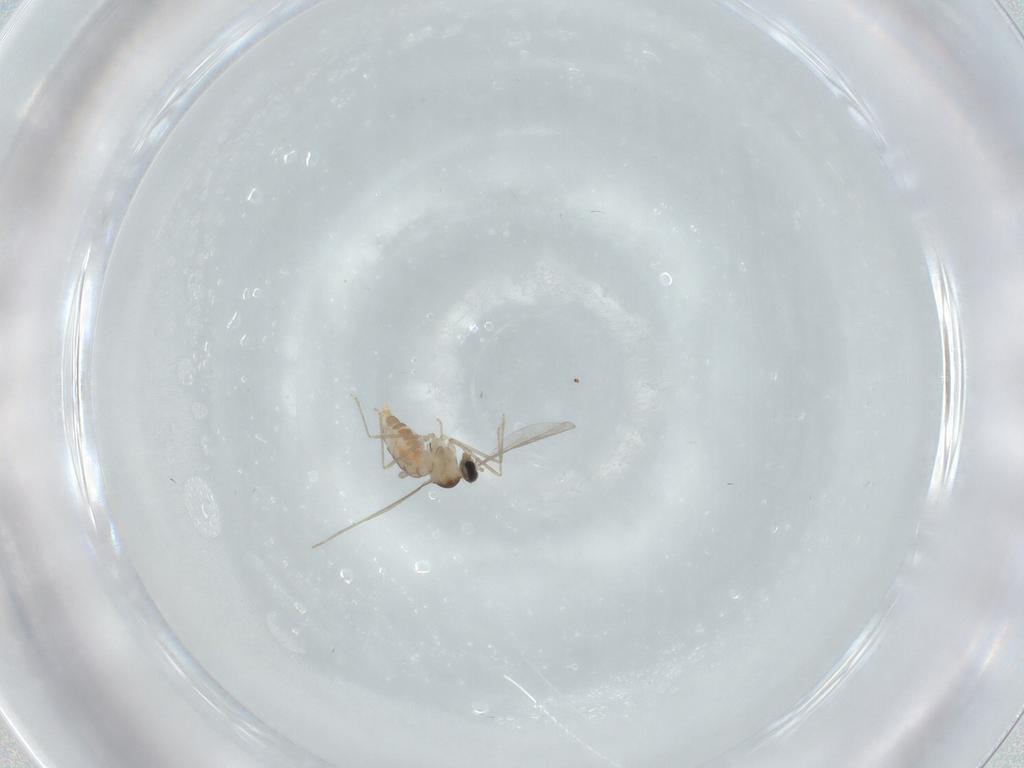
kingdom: Animalia
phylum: Arthropoda
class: Insecta
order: Diptera
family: Cecidomyiidae
